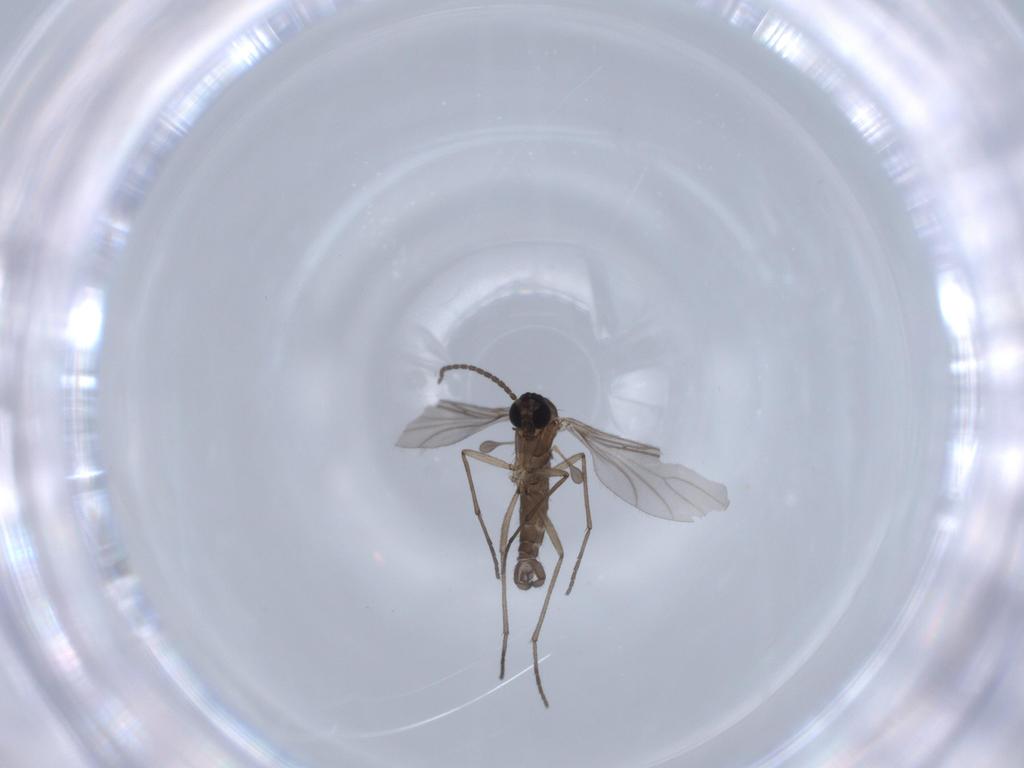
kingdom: Animalia
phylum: Arthropoda
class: Insecta
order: Diptera
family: Sciaridae
